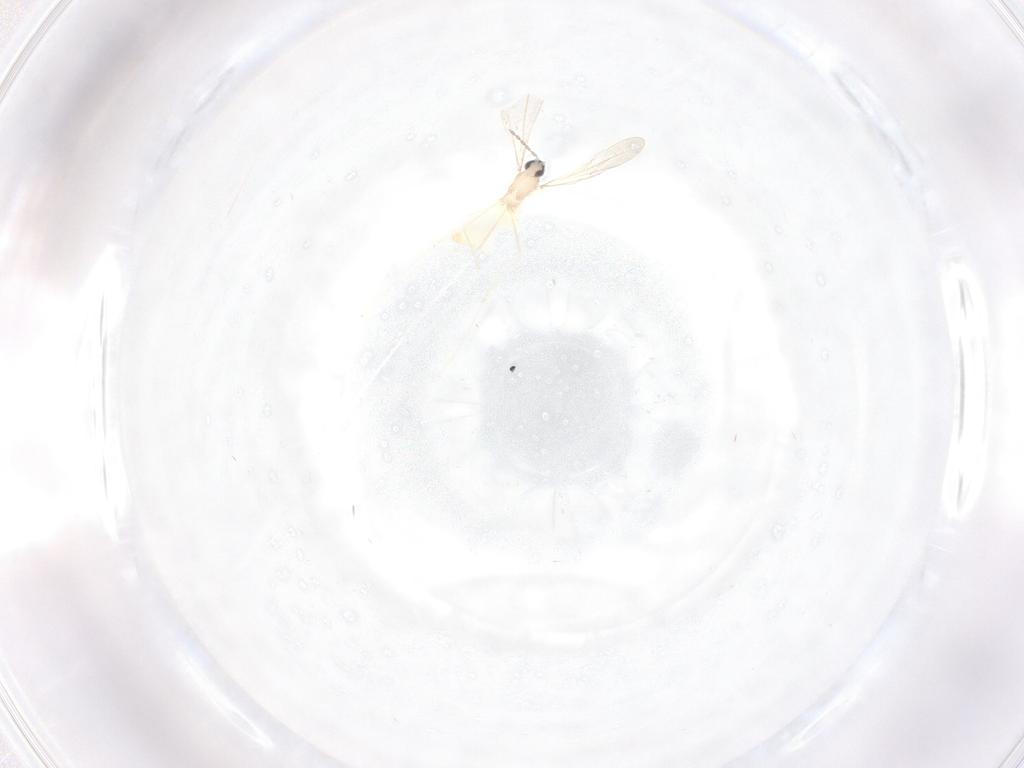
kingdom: Animalia
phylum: Arthropoda
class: Insecta
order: Diptera
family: Cecidomyiidae
